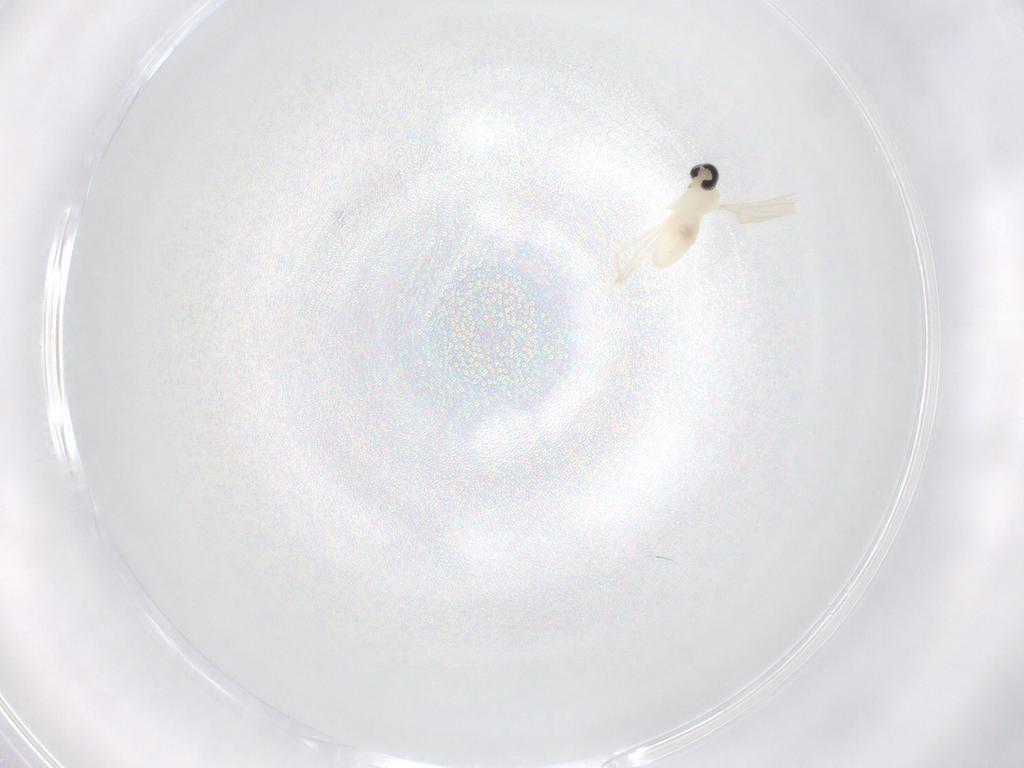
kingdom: Animalia
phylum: Arthropoda
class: Insecta
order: Diptera
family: Cecidomyiidae
